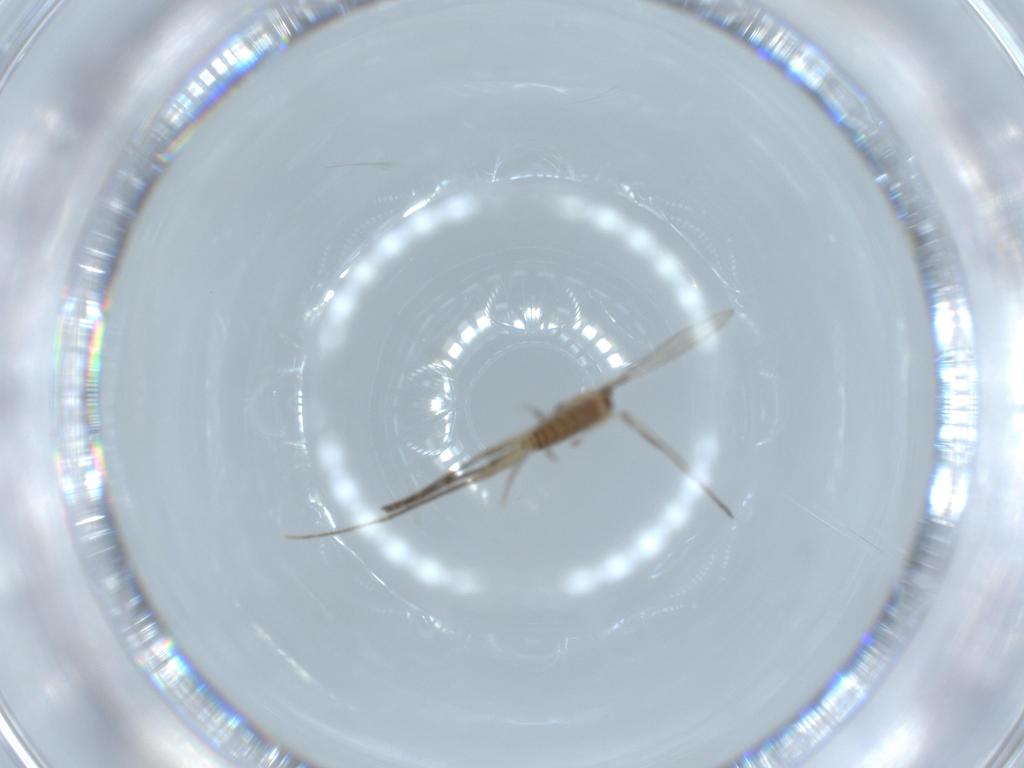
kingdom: Animalia
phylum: Arthropoda
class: Insecta
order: Diptera
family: Psychodidae
